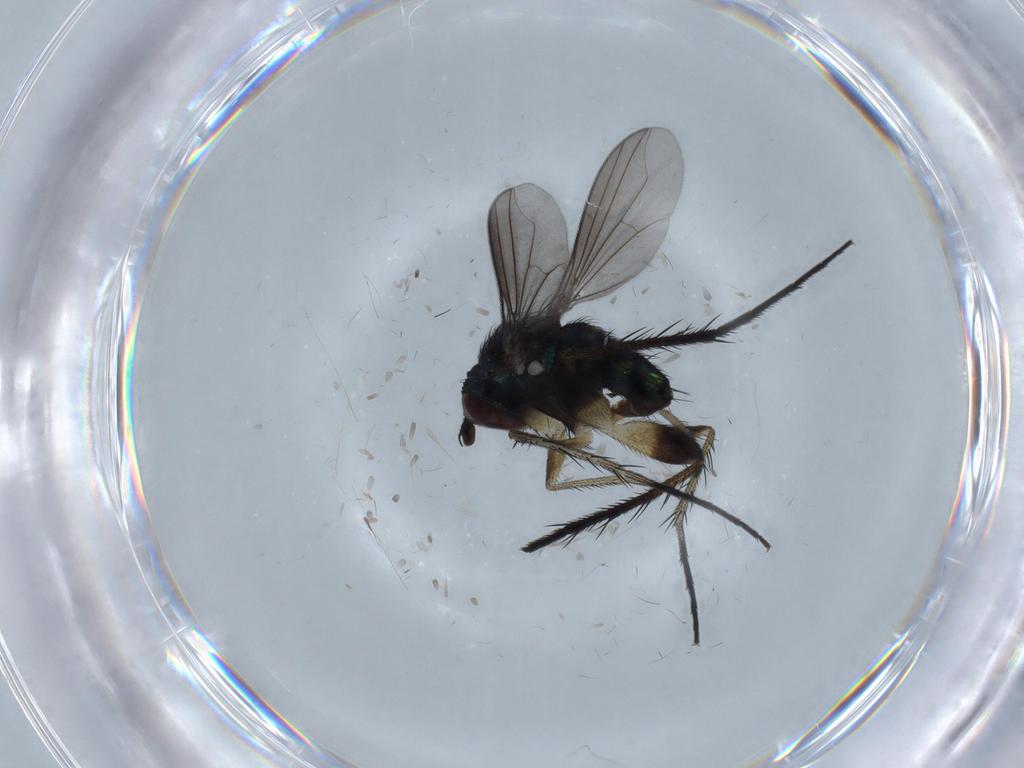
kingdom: Animalia
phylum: Arthropoda
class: Insecta
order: Diptera
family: Dolichopodidae
